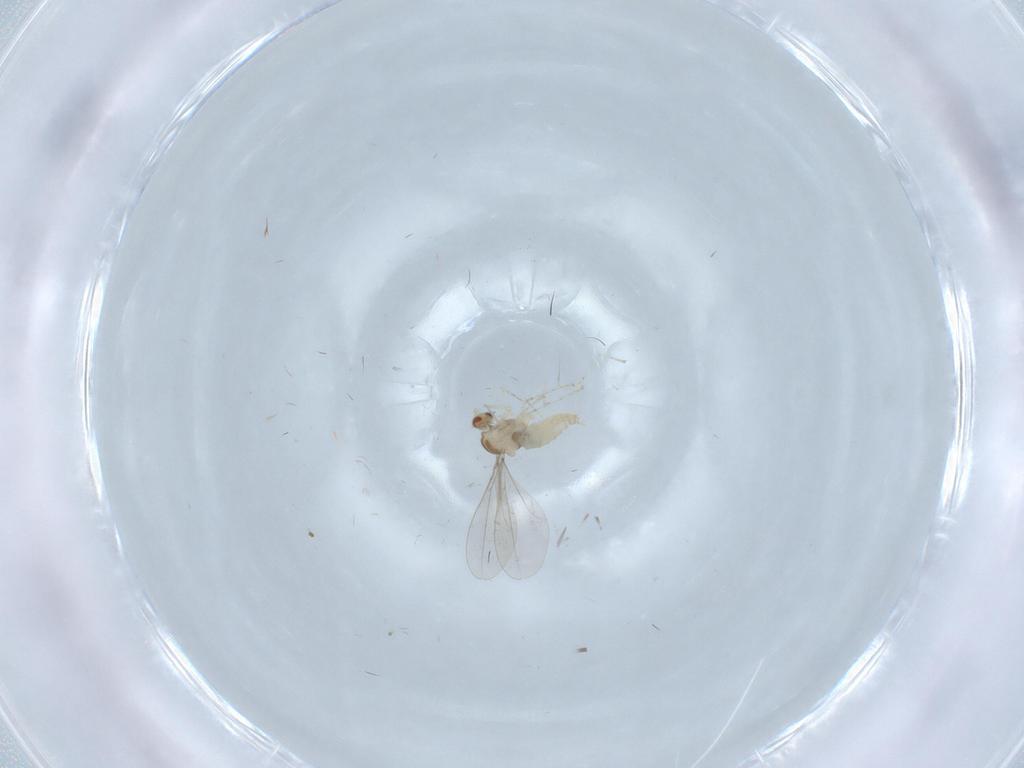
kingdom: Animalia
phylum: Arthropoda
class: Insecta
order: Diptera
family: Cecidomyiidae
